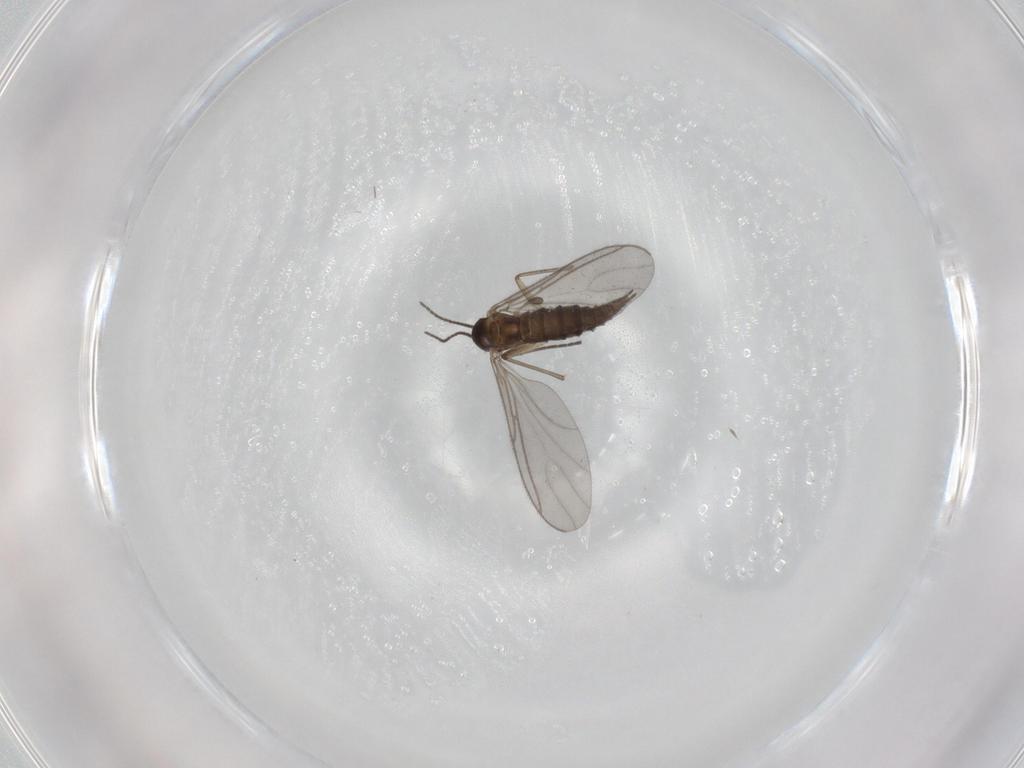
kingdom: Animalia
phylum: Arthropoda
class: Insecta
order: Diptera
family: Sciaridae
